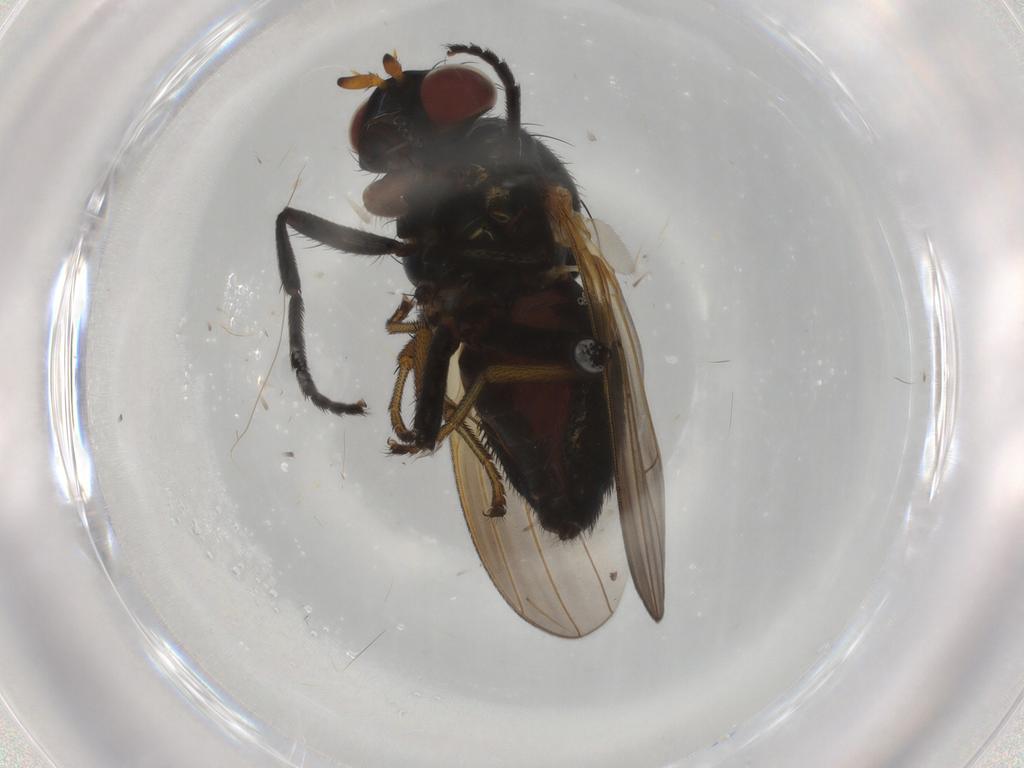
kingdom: Animalia
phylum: Arthropoda
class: Insecta
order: Diptera
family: Lauxaniidae
